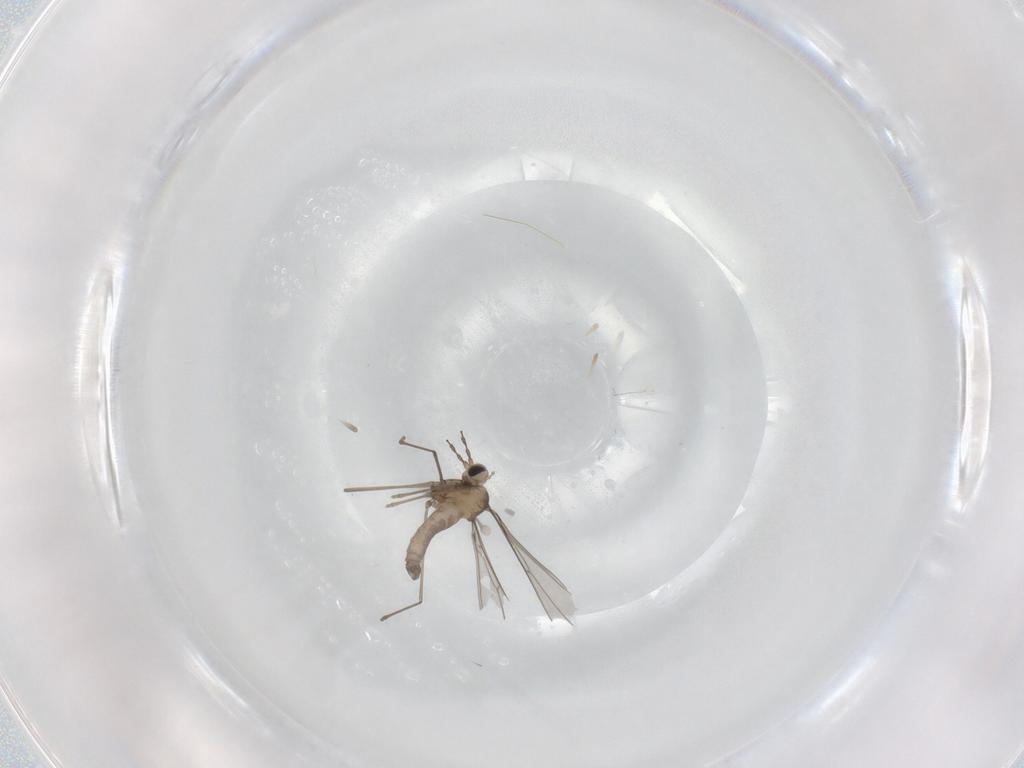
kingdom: Animalia
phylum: Arthropoda
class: Insecta
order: Diptera
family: Cecidomyiidae
